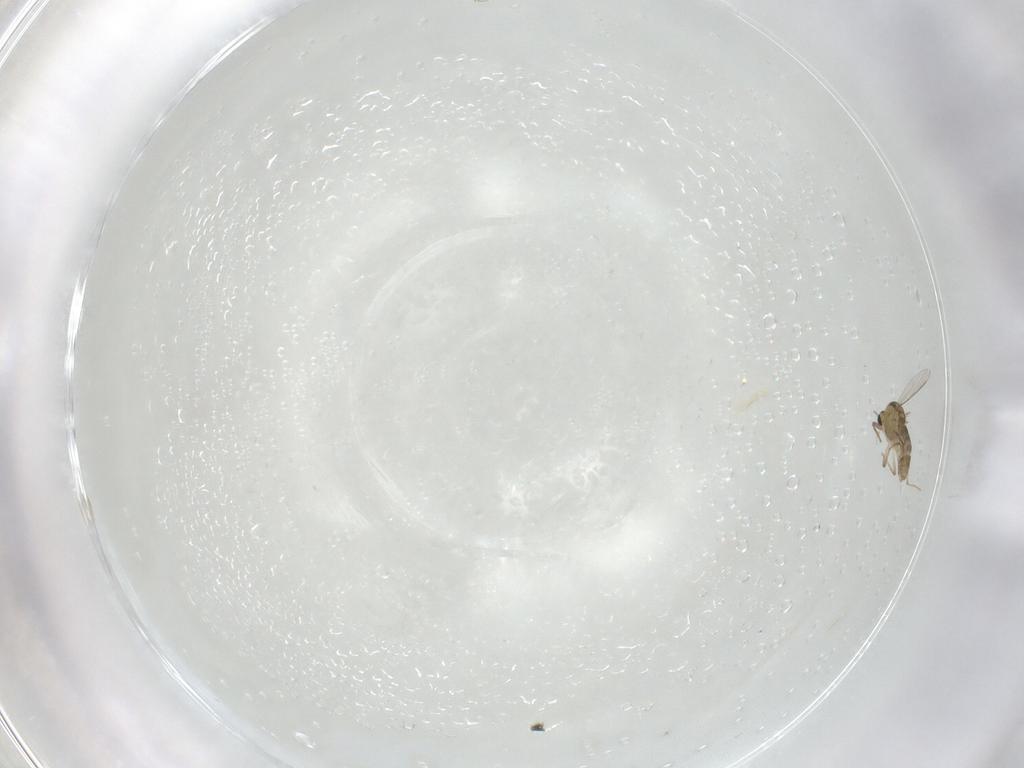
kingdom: Animalia
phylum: Arthropoda
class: Insecta
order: Diptera
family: Chironomidae
